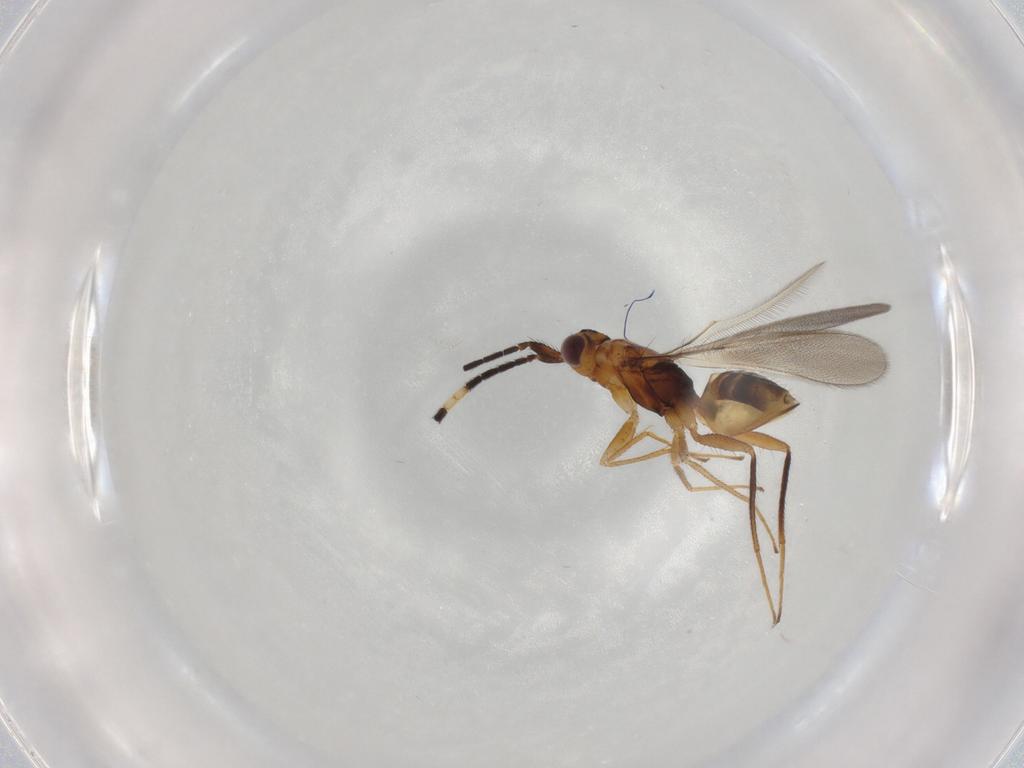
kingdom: Animalia
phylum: Arthropoda
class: Insecta
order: Hymenoptera
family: Mymaridae
